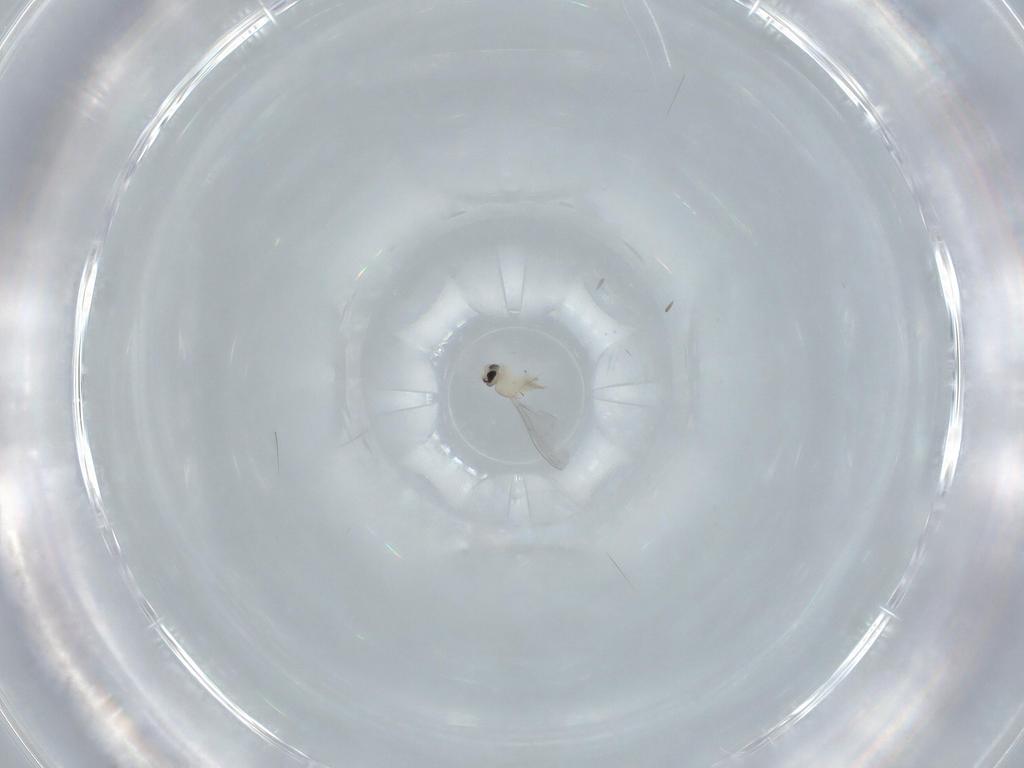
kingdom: Animalia
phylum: Arthropoda
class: Insecta
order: Diptera
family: Cecidomyiidae
